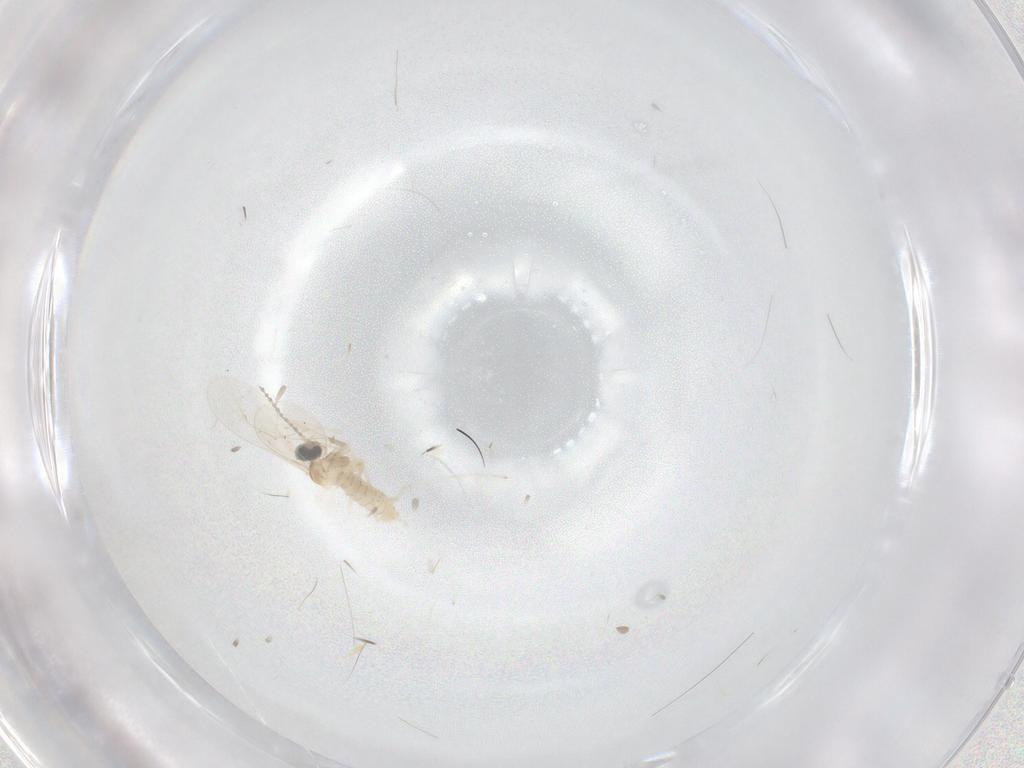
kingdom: Animalia
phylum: Arthropoda
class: Insecta
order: Diptera
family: Cecidomyiidae
